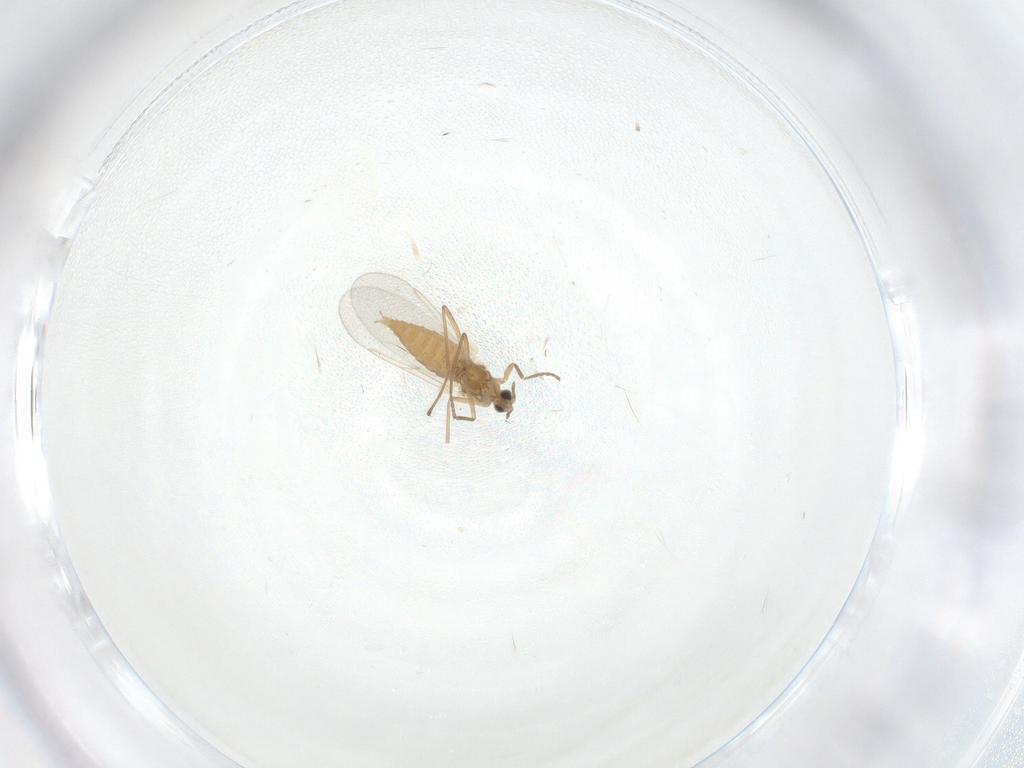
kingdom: Animalia
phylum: Arthropoda
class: Insecta
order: Diptera
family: Cecidomyiidae
